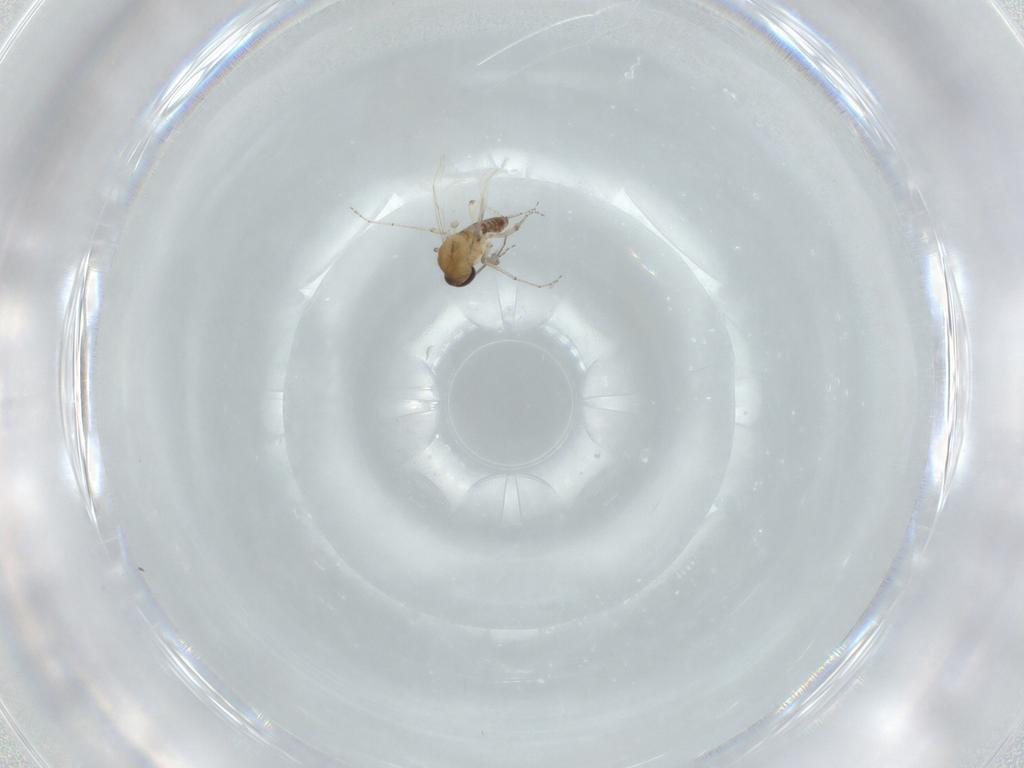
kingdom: Animalia
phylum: Arthropoda
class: Insecta
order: Diptera
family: Ceratopogonidae
